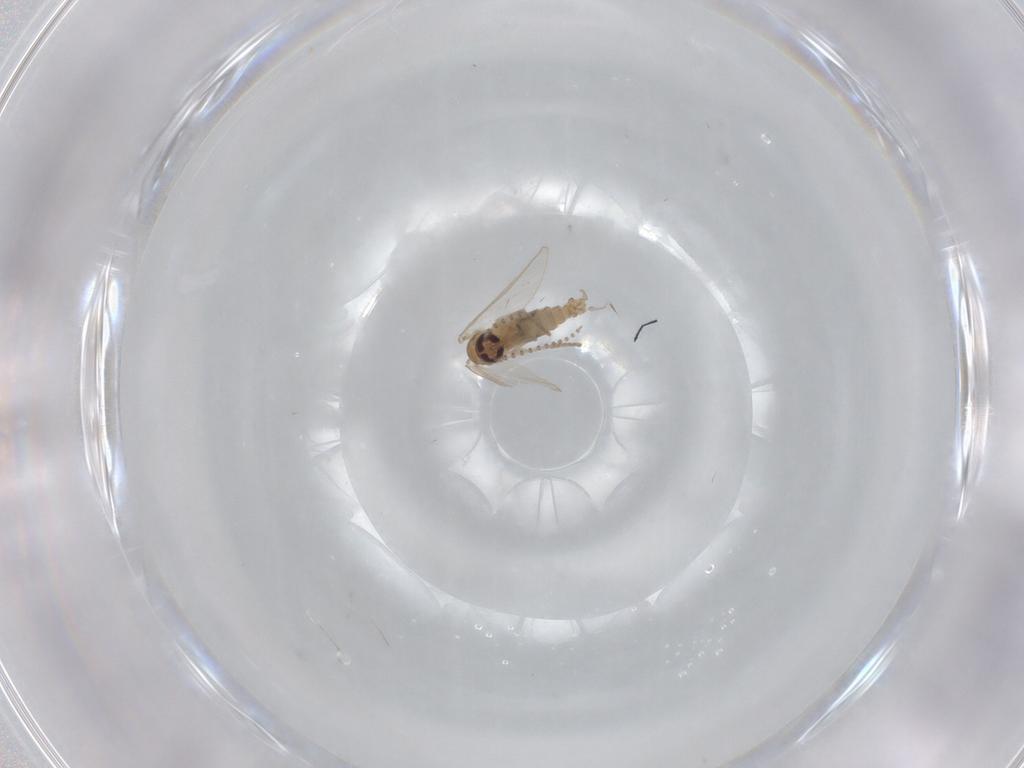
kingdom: Animalia
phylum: Arthropoda
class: Insecta
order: Diptera
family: Psychodidae
